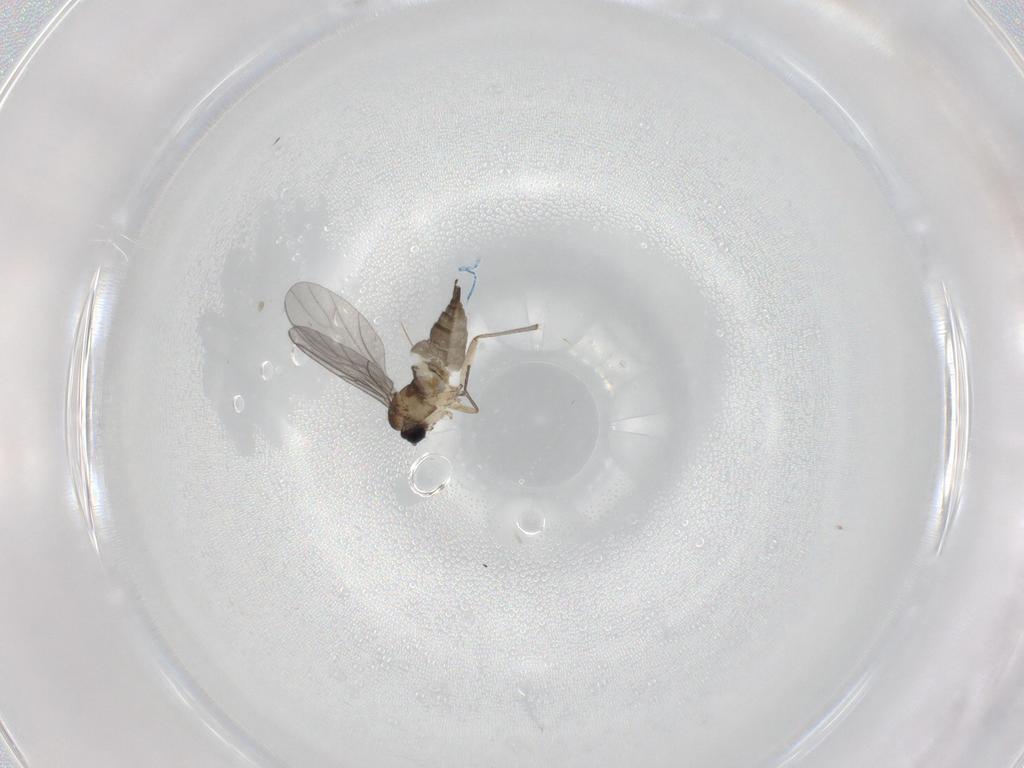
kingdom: Animalia
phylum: Arthropoda
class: Insecta
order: Diptera
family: Sciaridae
